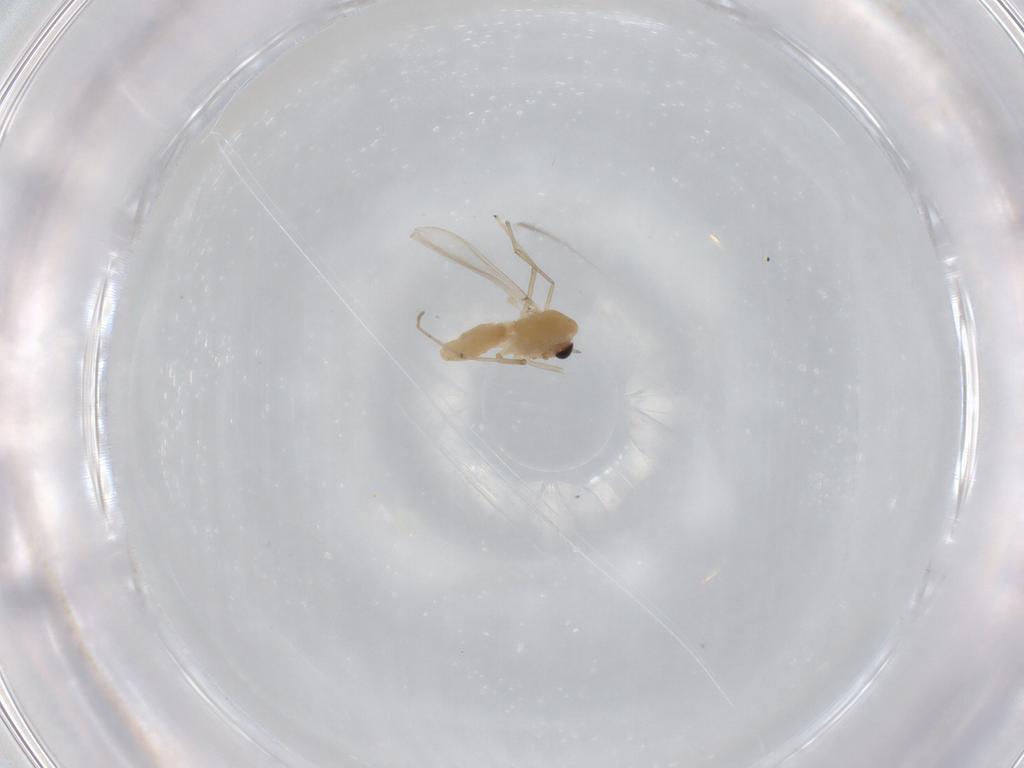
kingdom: Animalia
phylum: Arthropoda
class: Insecta
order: Diptera
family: Chironomidae
